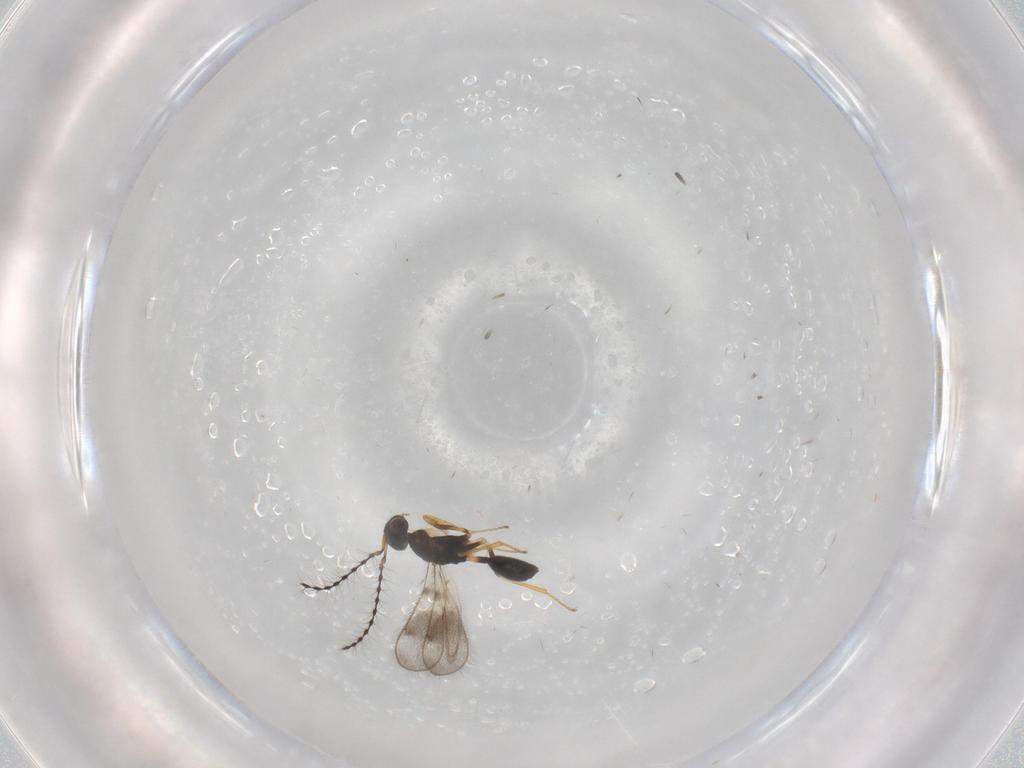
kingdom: Animalia
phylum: Arthropoda
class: Insecta
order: Hymenoptera
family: Diparidae
